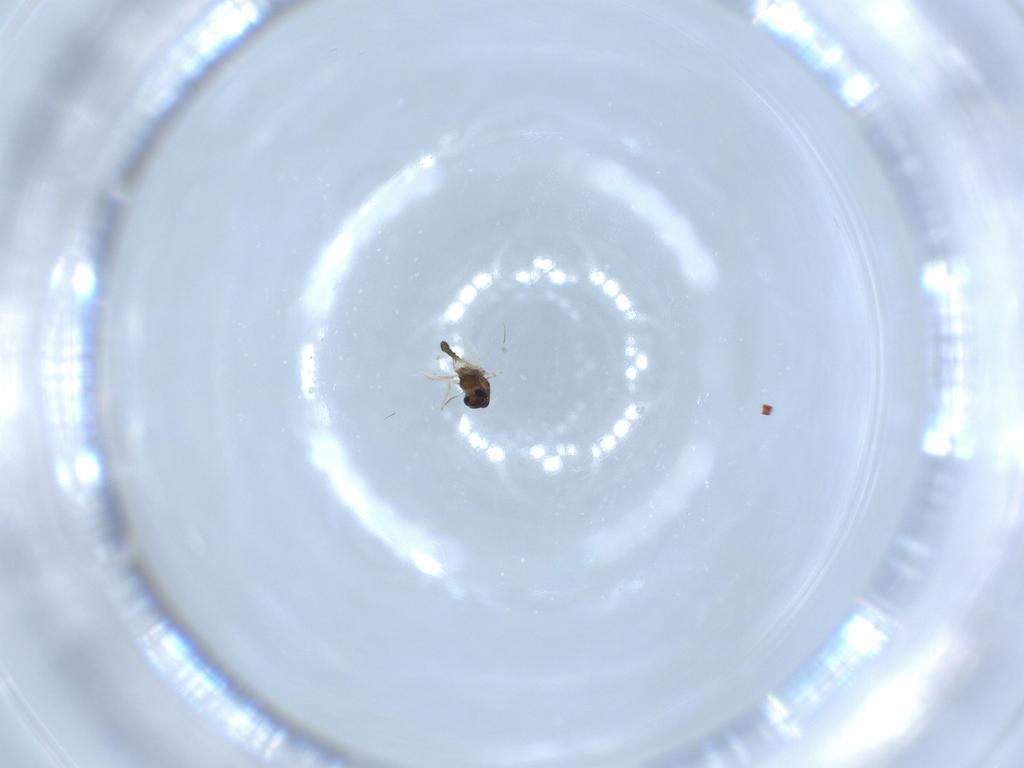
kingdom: Animalia
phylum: Arthropoda
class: Insecta
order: Diptera
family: Chironomidae
